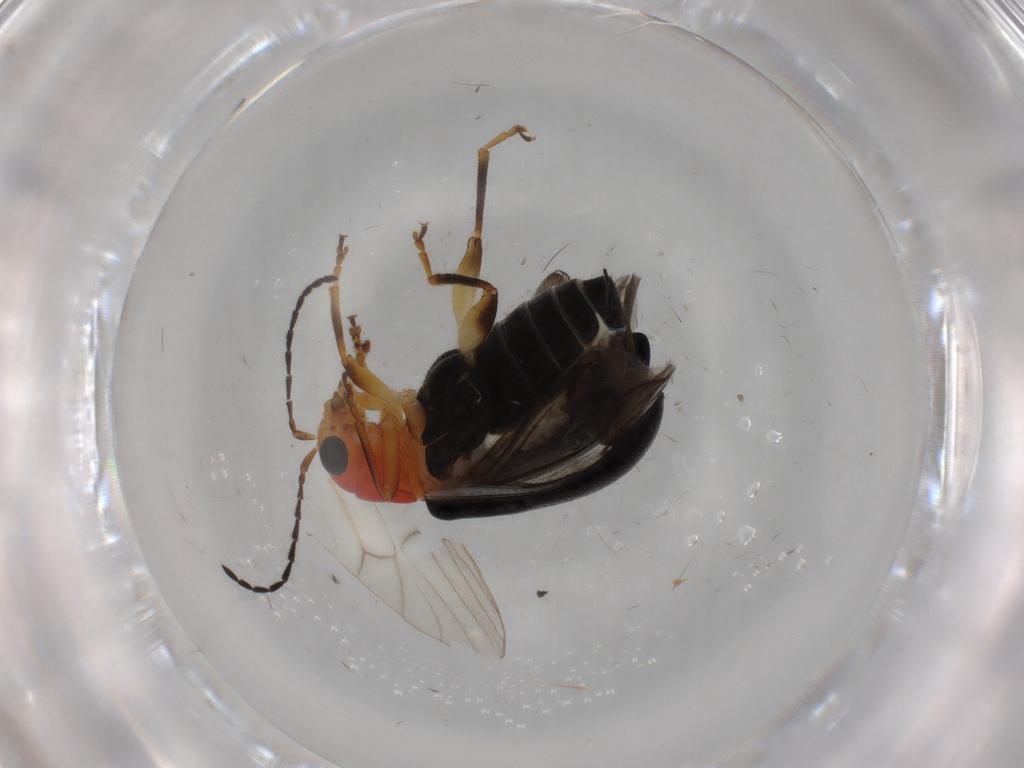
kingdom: Animalia
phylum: Arthropoda
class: Insecta
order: Coleoptera
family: Chrysomelidae
